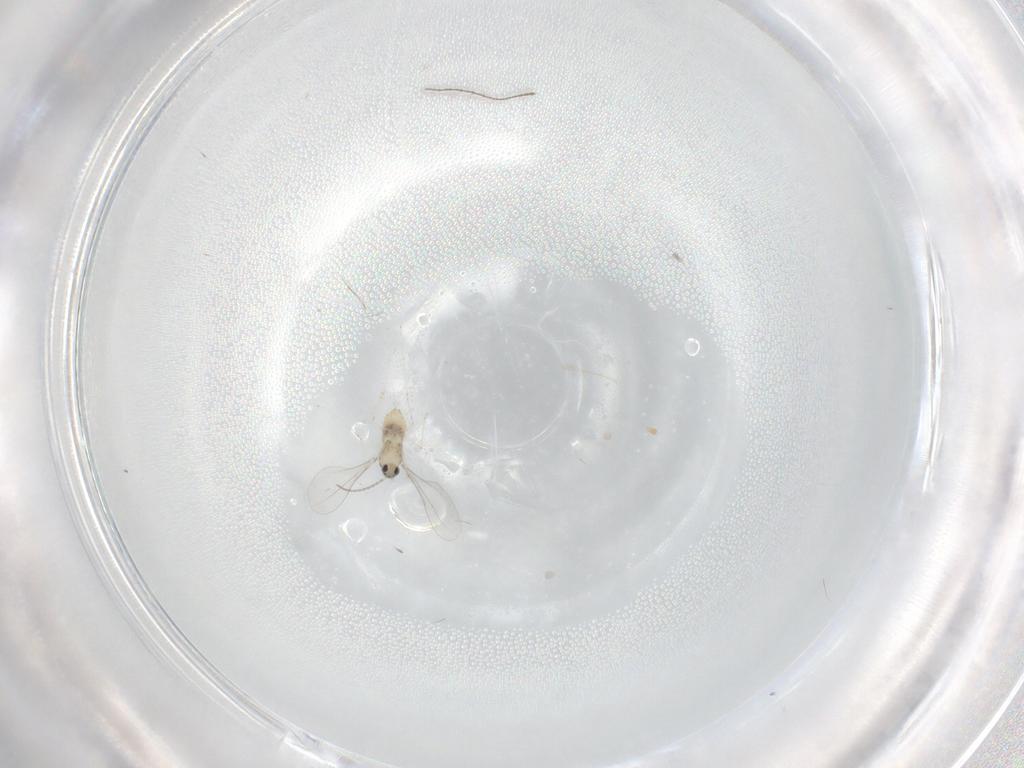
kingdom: Animalia
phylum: Arthropoda
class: Insecta
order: Diptera
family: Cecidomyiidae
